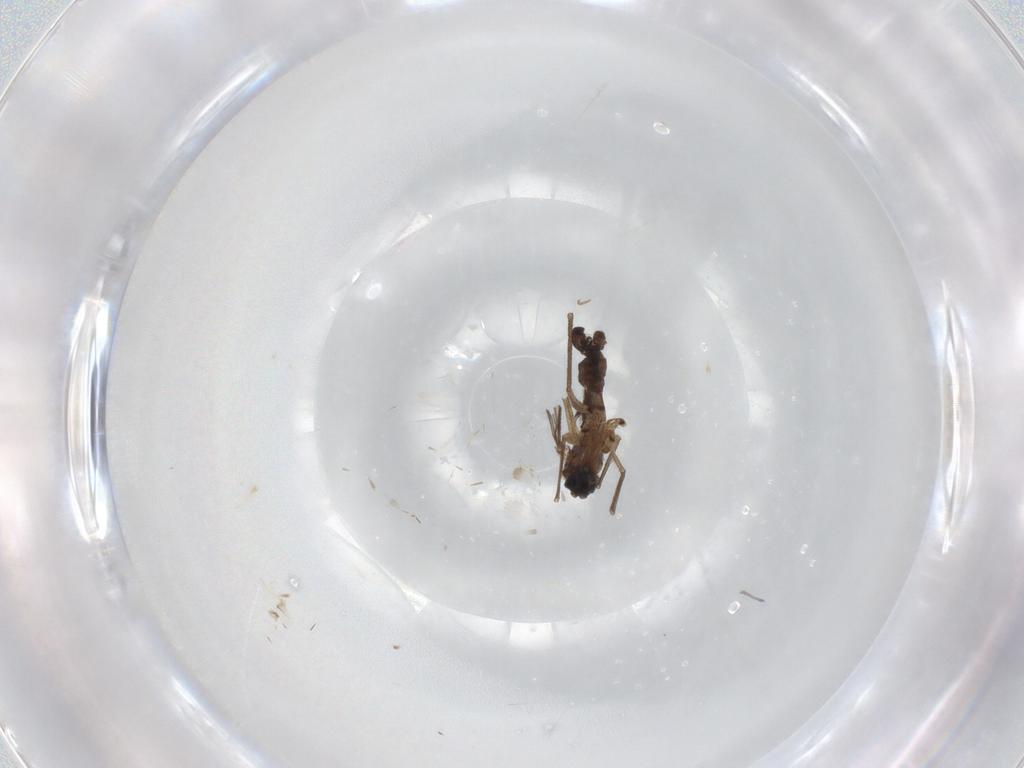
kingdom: Animalia
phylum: Arthropoda
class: Insecta
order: Diptera
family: Sciaridae
